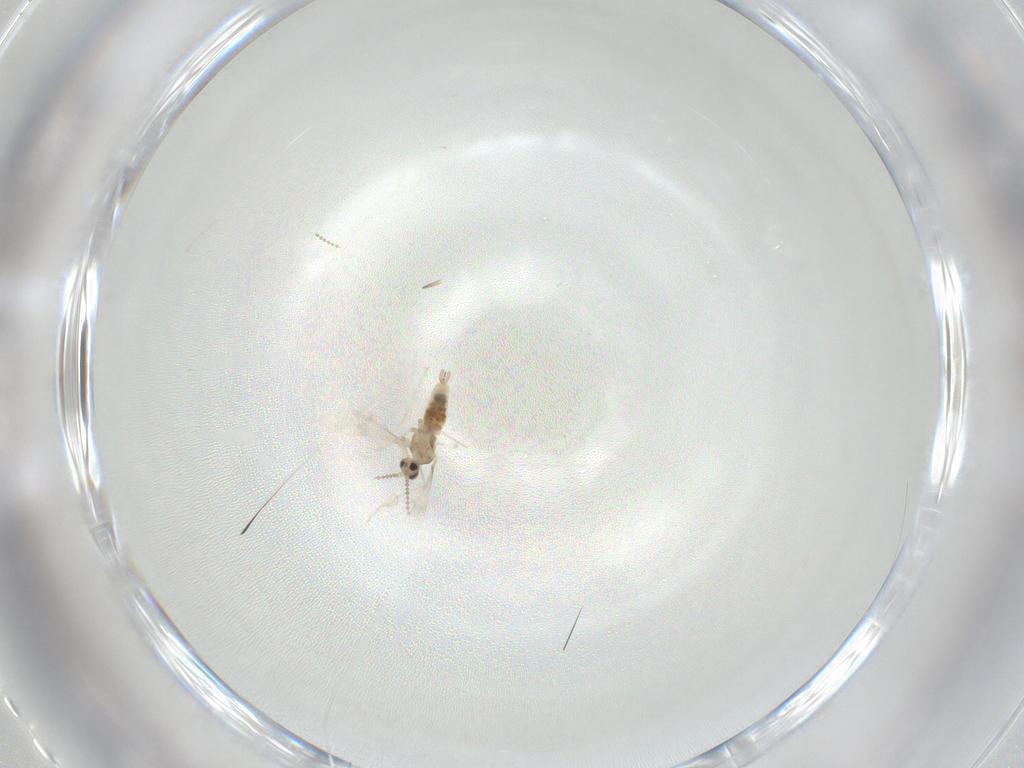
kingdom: Animalia
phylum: Arthropoda
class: Insecta
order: Diptera
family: Cecidomyiidae
